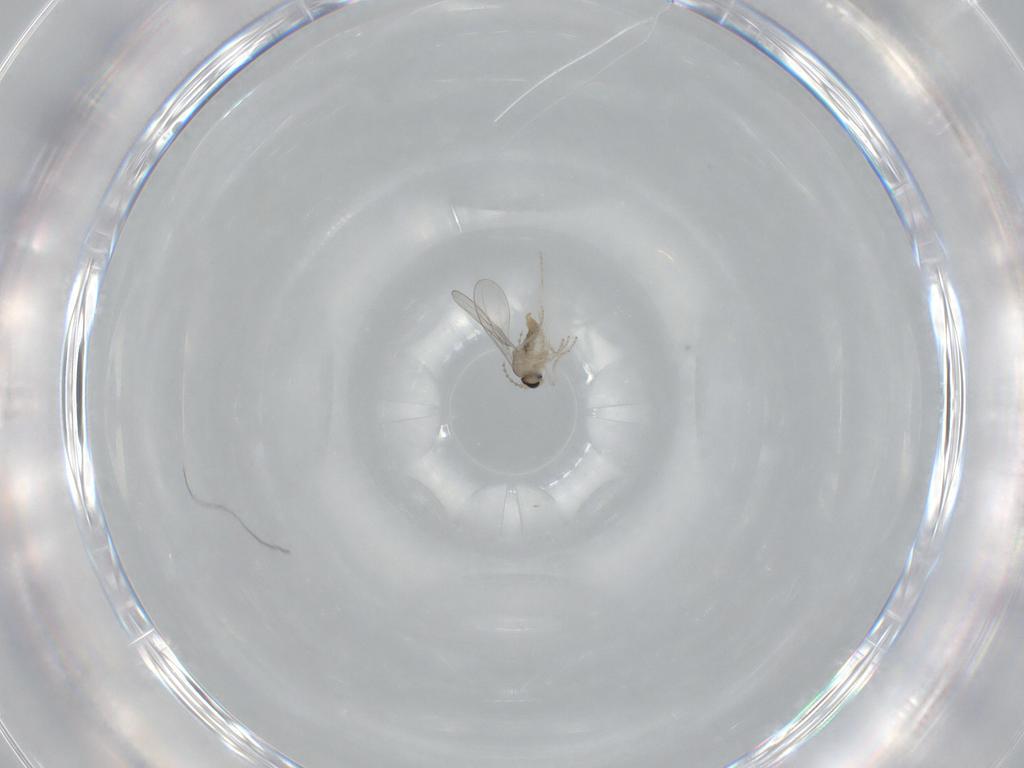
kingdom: Animalia
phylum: Arthropoda
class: Insecta
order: Diptera
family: Cecidomyiidae
